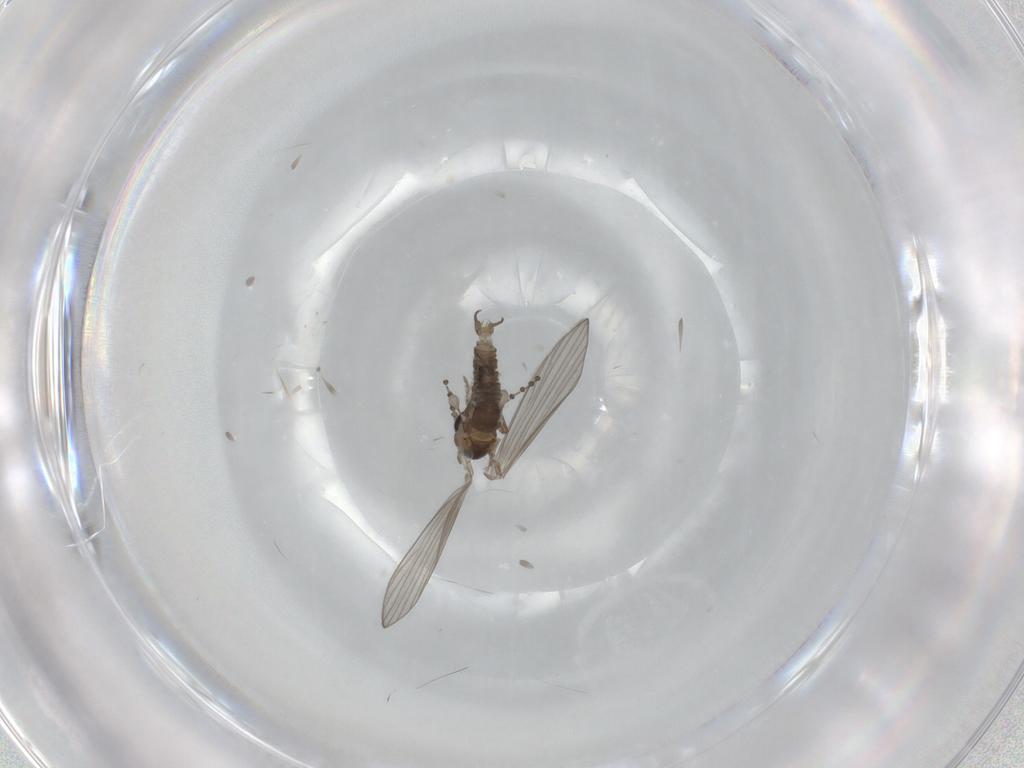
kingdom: Animalia
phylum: Arthropoda
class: Insecta
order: Diptera
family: Psychodidae
